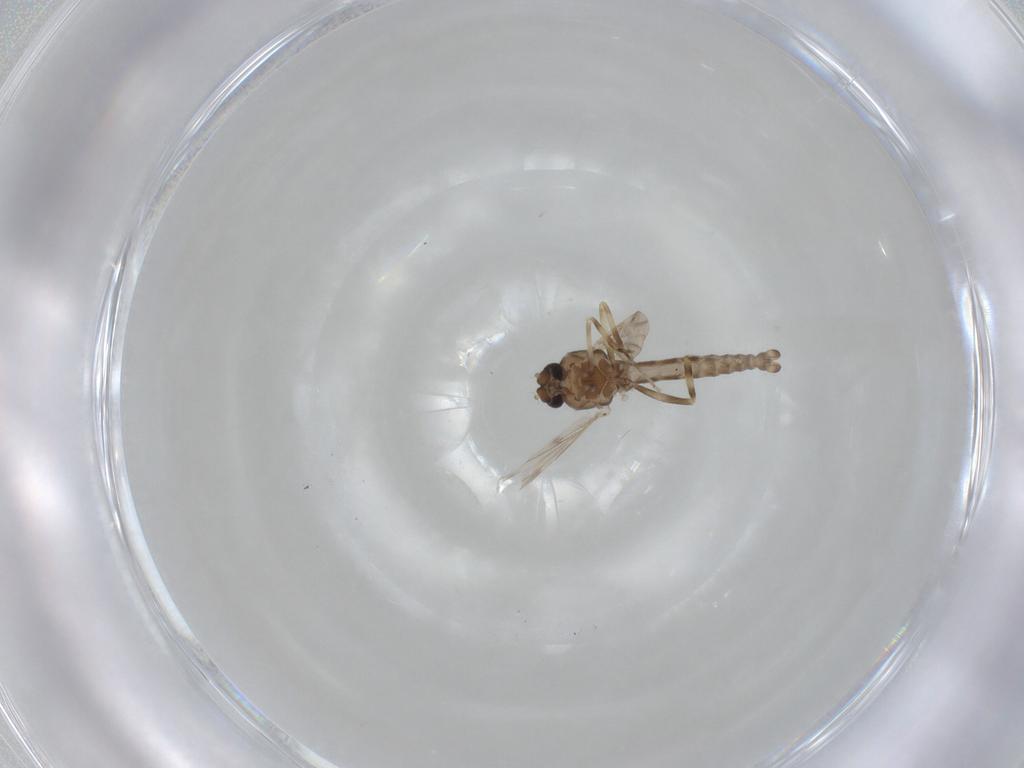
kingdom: Animalia
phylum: Arthropoda
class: Insecta
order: Diptera
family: Ceratopogonidae
